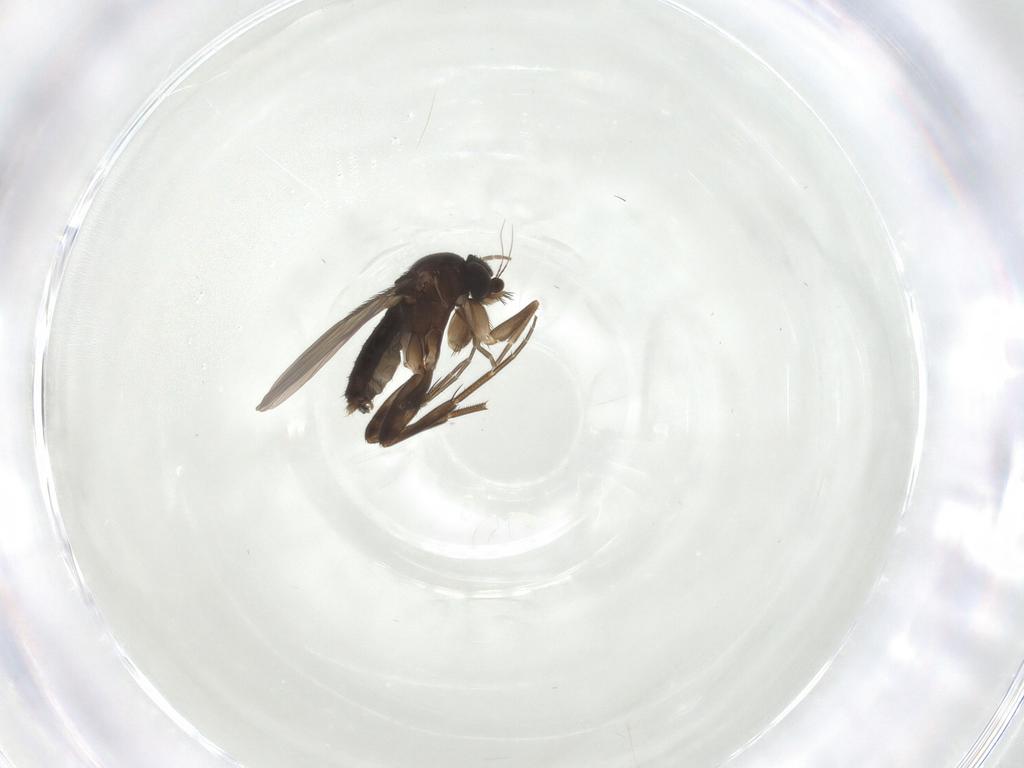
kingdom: Animalia
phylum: Arthropoda
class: Insecta
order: Diptera
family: Phoridae
